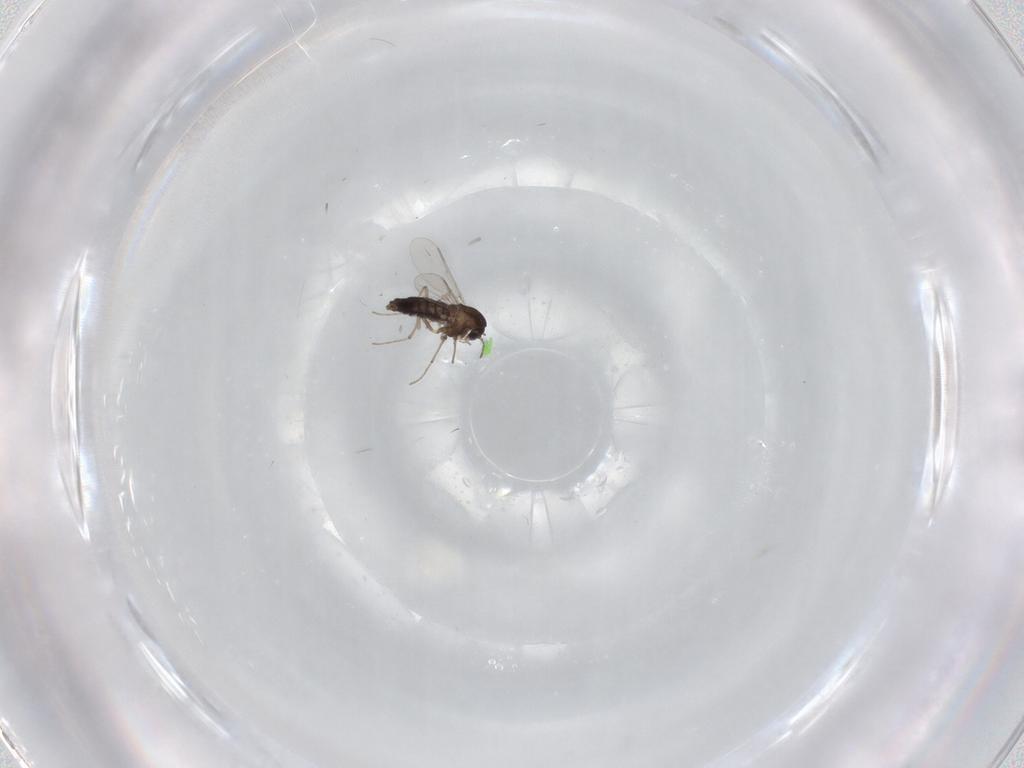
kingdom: Animalia
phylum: Arthropoda
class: Insecta
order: Diptera
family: Chironomidae
